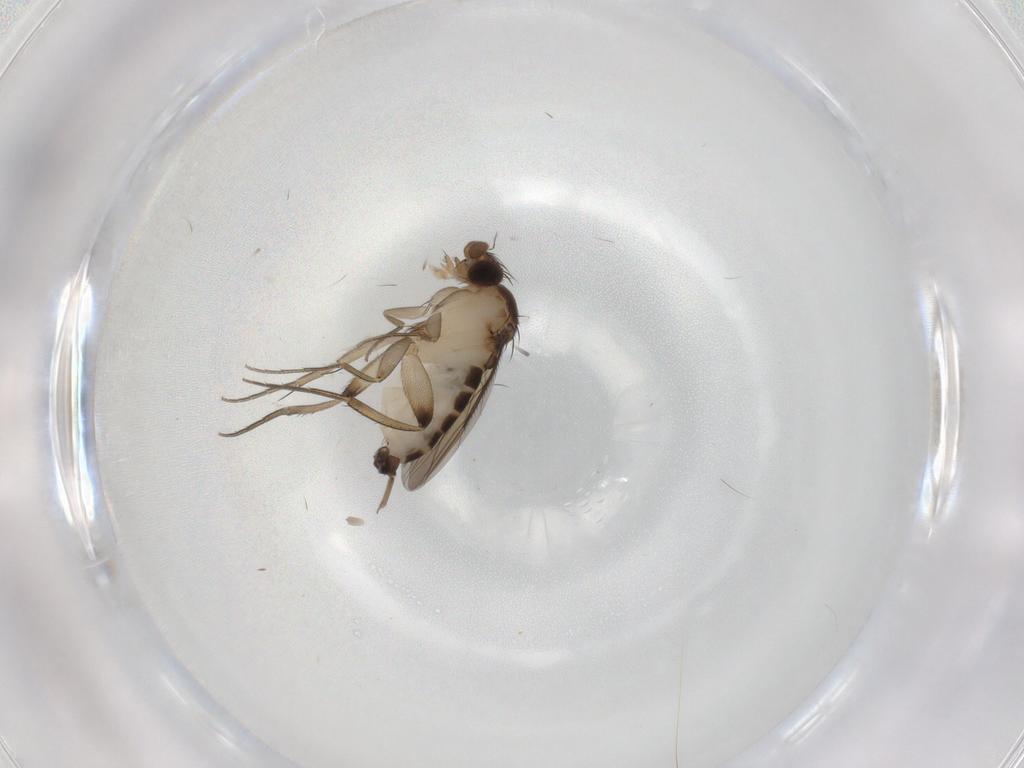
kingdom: Animalia
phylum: Arthropoda
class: Insecta
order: Diptera
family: Phoridae
